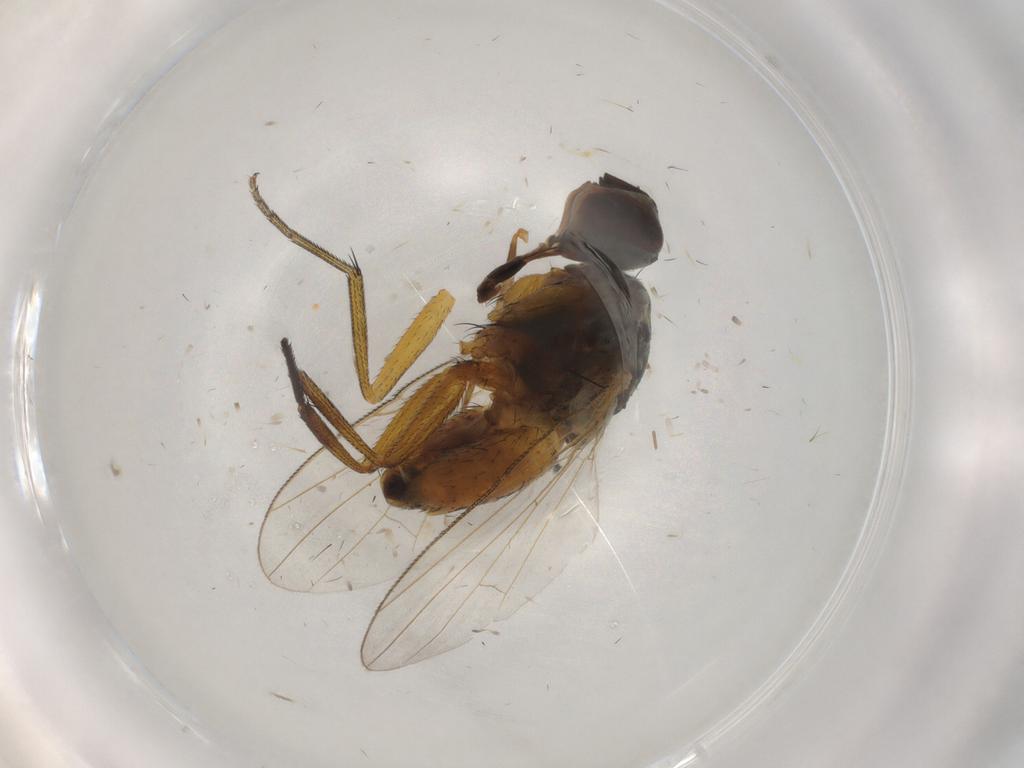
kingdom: Animalia
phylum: Arthropoda
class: Insecta
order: Diptera
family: Muscidae
